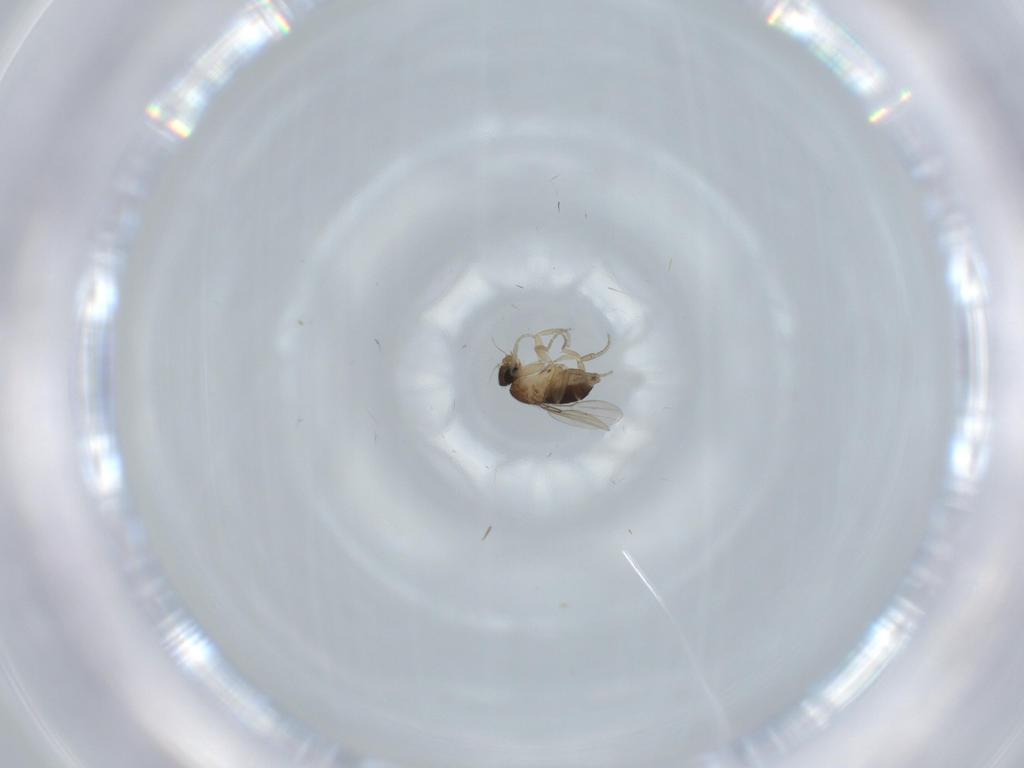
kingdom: Animalia
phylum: Arthropoda
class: Insecta
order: Diptera
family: Phoridae
